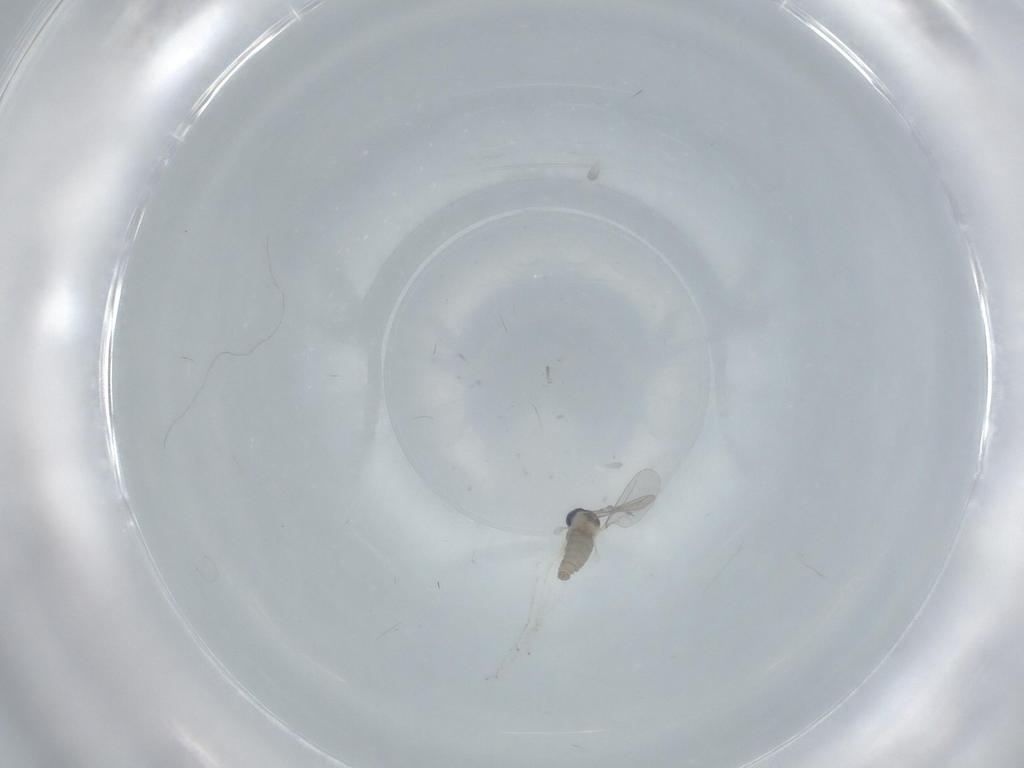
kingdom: Animalia
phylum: Arthropoda
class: Insecta
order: Diptera
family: Cecidomyiidae
